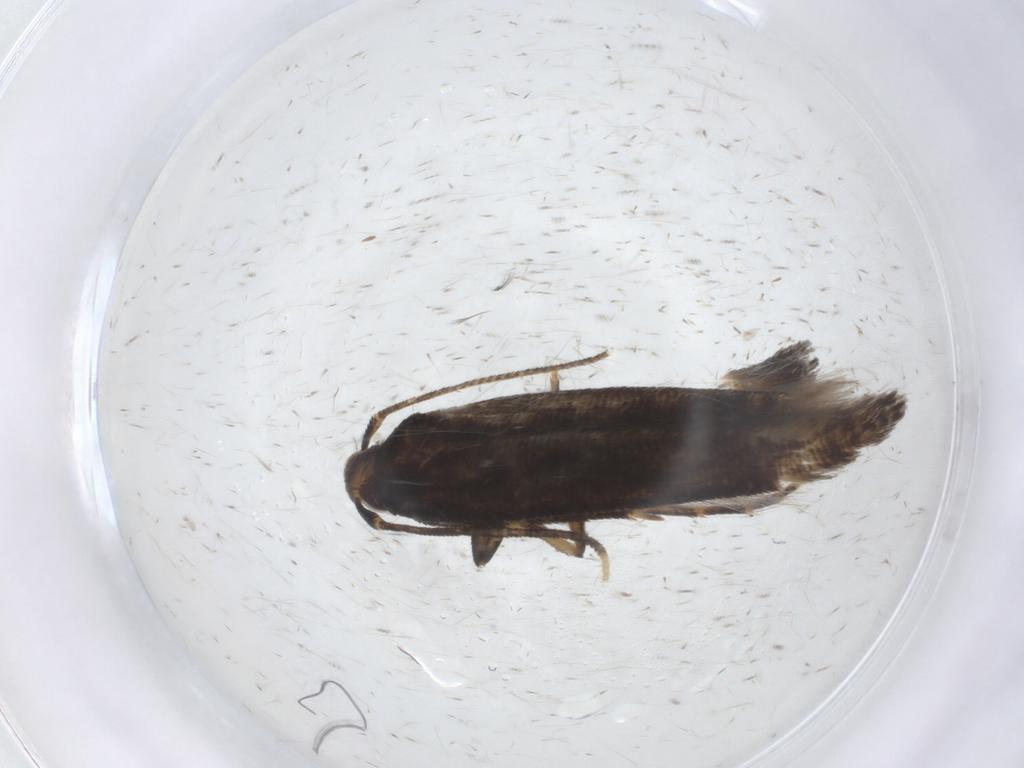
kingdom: Animalia
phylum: Arthropoda
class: Insecta
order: Lepidoptera
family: Cosmopterigidae
